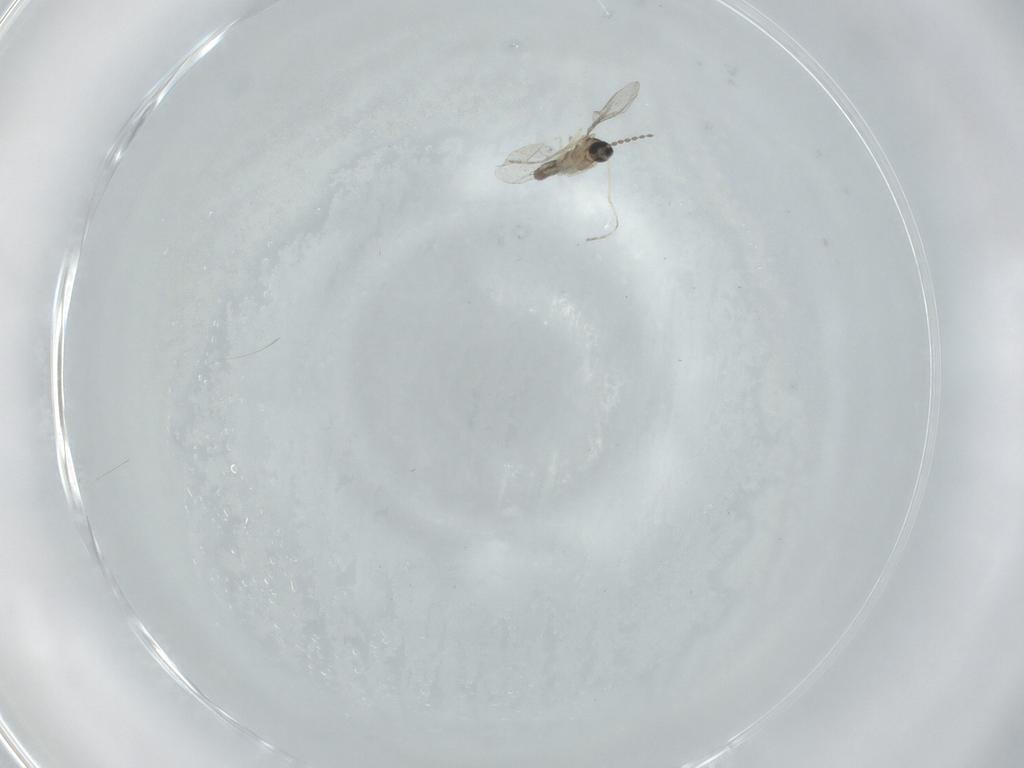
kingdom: Animalia
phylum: Arthropoda
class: Insecta
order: Diptera
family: Cecidomyiidae
